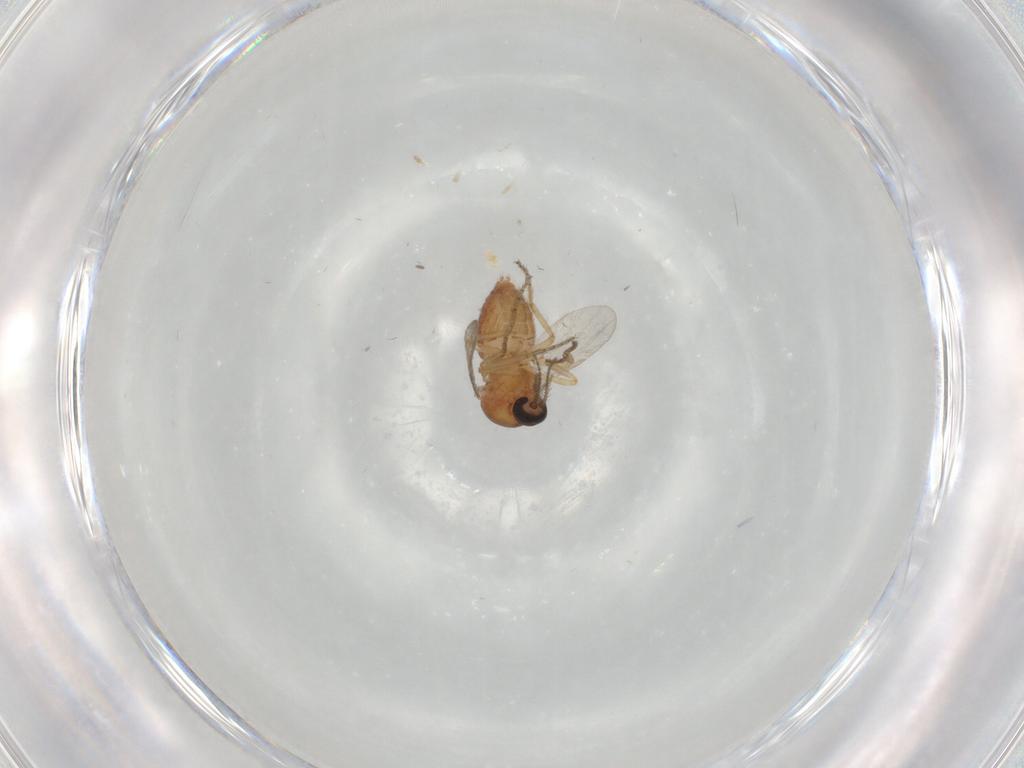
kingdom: Animalia
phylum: Arthropoda
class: Insecta
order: Diptera
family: Ceratopogonidae
